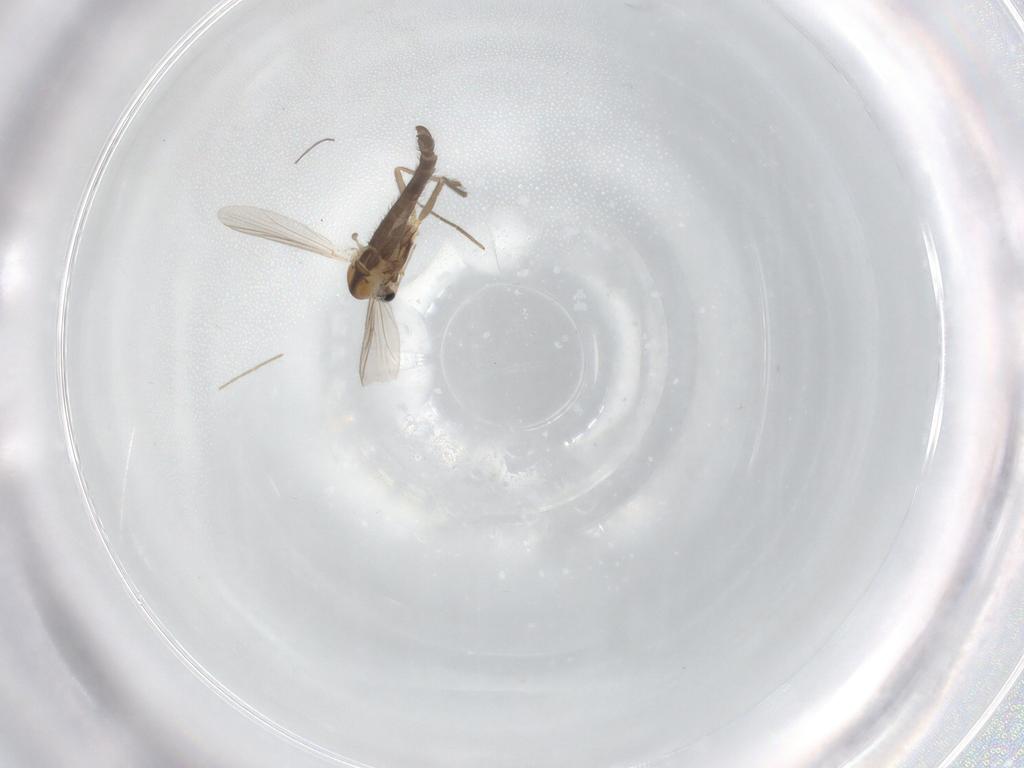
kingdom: Animalia
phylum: Arthropoda
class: Insecta
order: Diptera
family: Chironomidae
